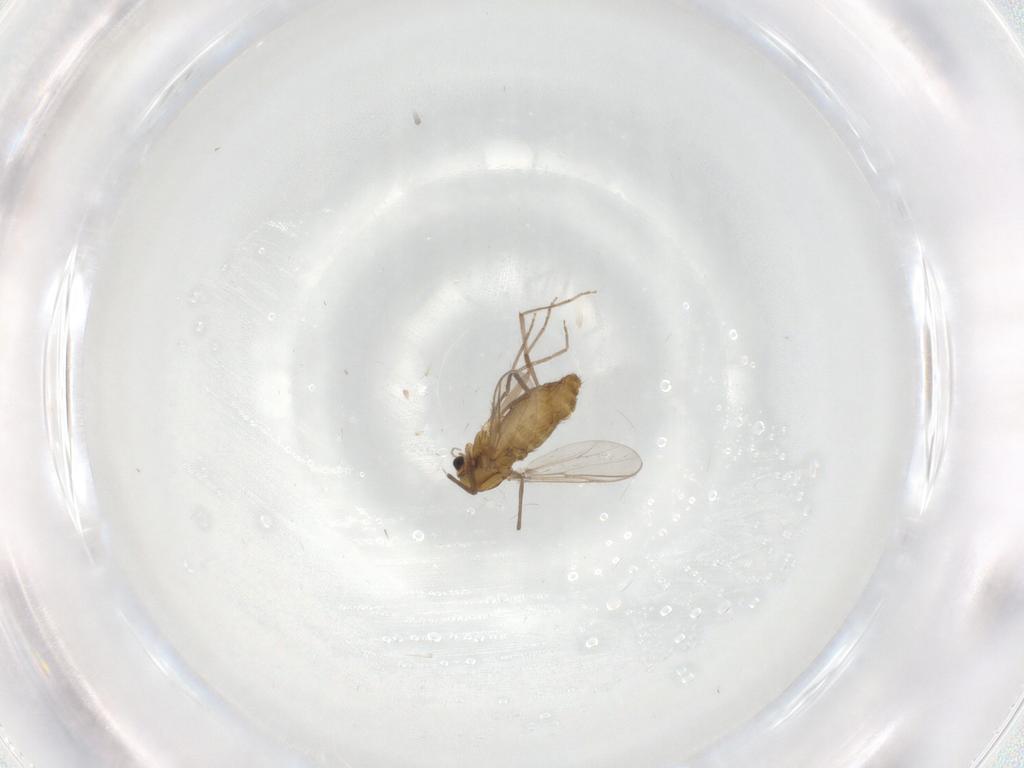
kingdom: Animalia
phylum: Arthropoda
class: Insecta
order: Diptera
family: Chironomidae
